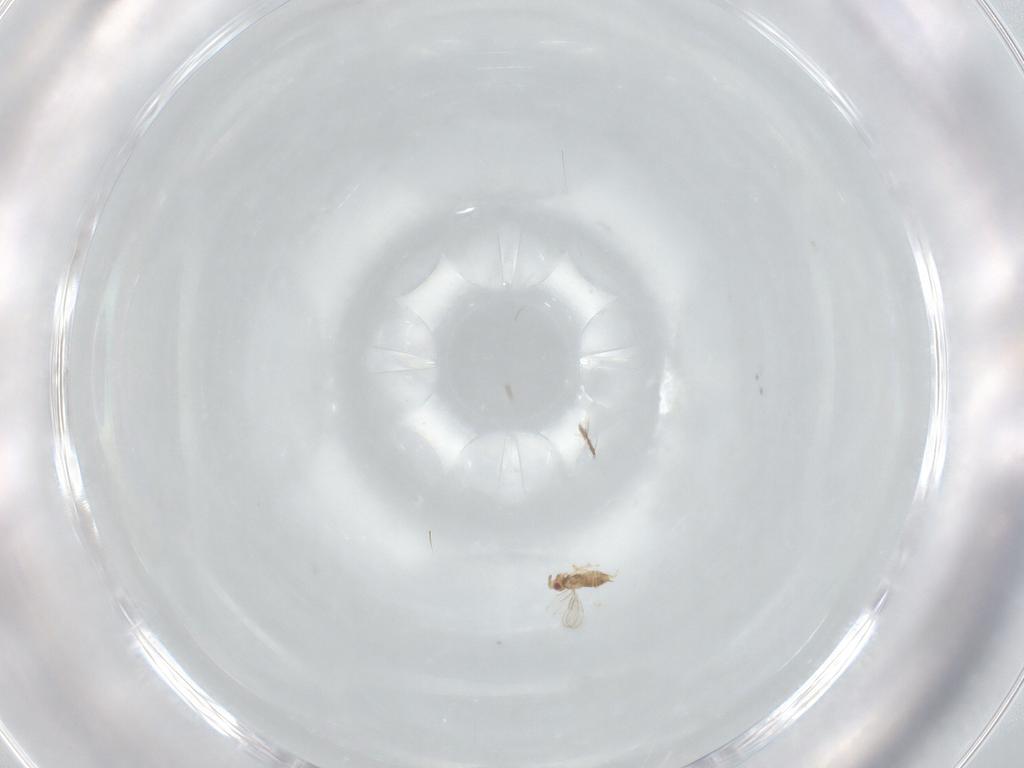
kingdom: Animalia
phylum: Arthropoda
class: Insecta
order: Hymenoptera
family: Aphelinidae
